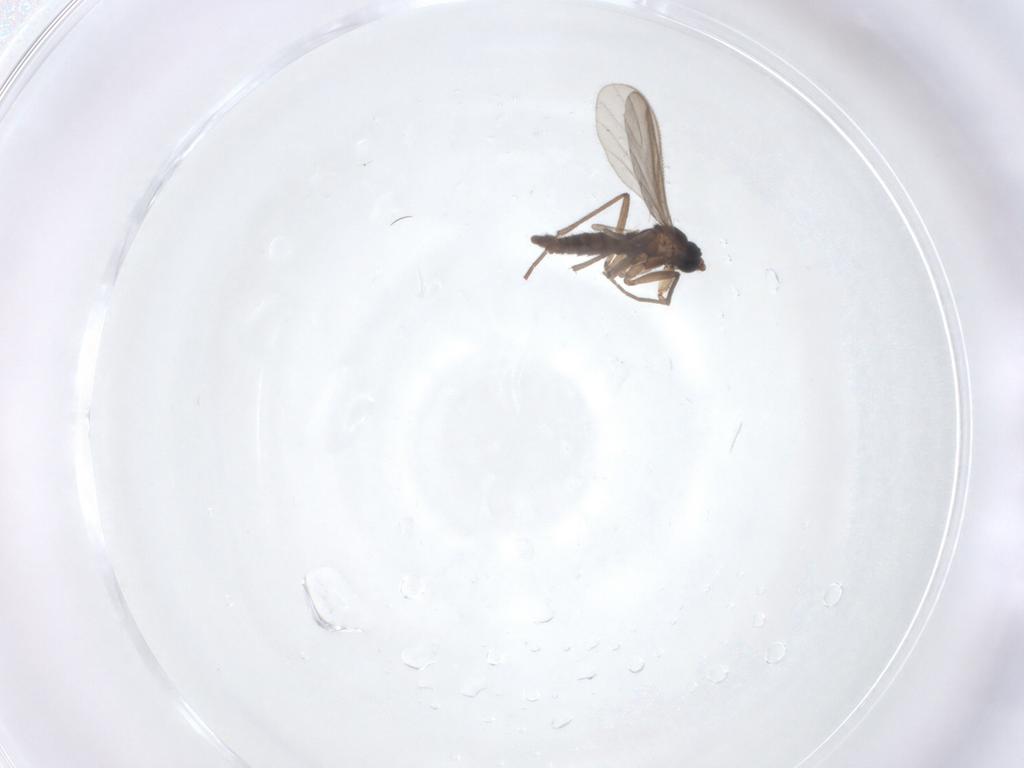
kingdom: Animalia
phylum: Arthropoda
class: Insecta
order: Diptera
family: Sciaridae
